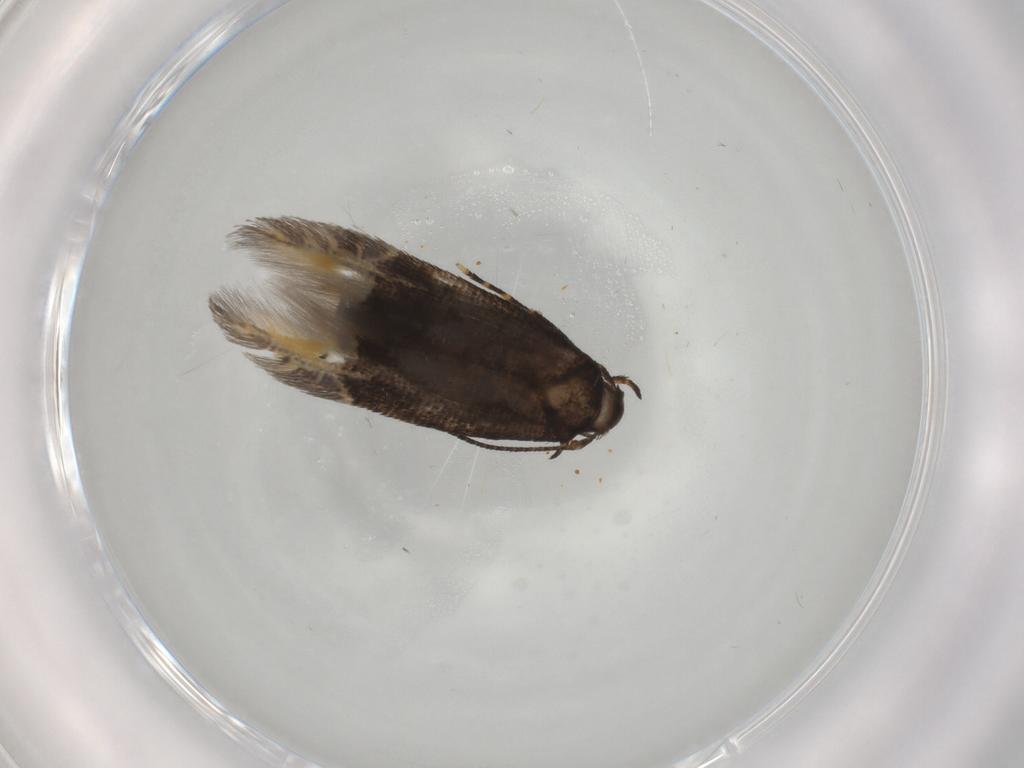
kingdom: Animalia
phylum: Arthropoda
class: Insecta
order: Lepidoptera
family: Cosmopterigidae
